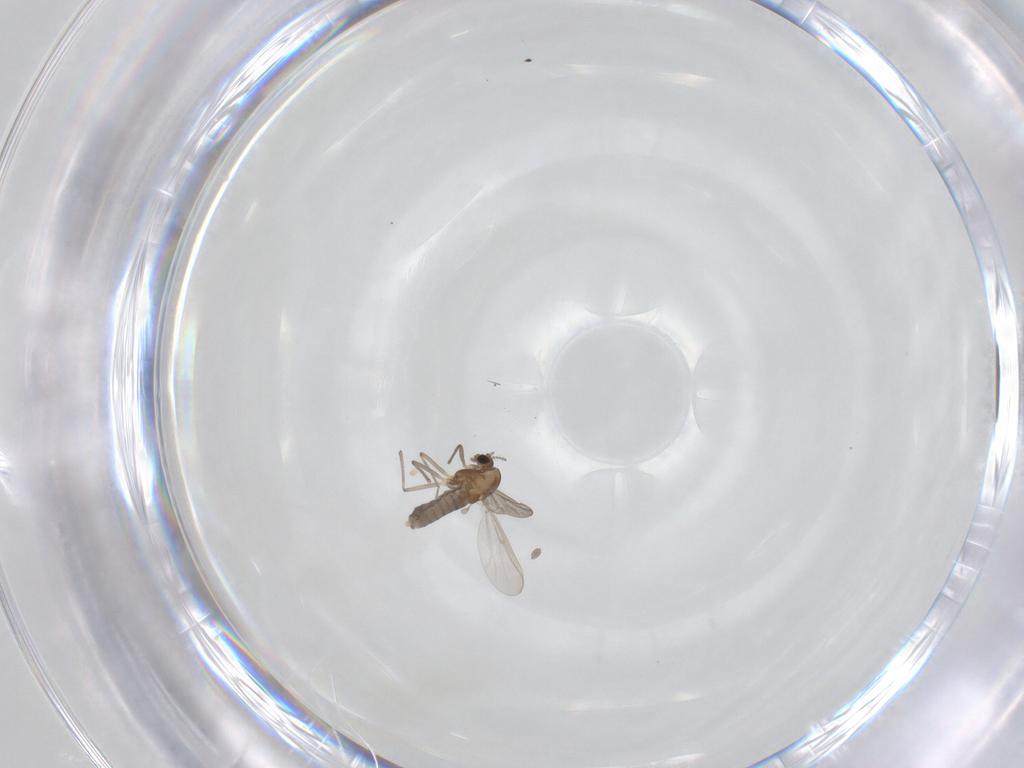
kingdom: Animalia
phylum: Arthropoda
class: Insecta
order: Diptera
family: Chironomidae
